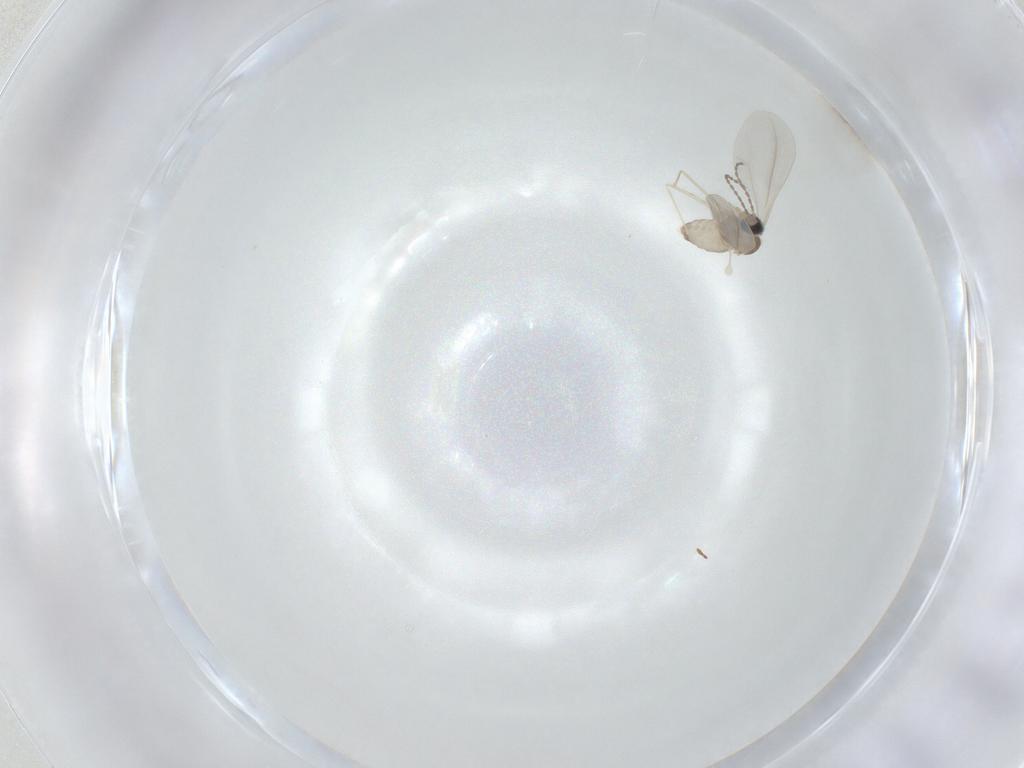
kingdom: Animalia
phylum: Arthropoda
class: Insecta
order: Diptera
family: Cecidomyiidae
